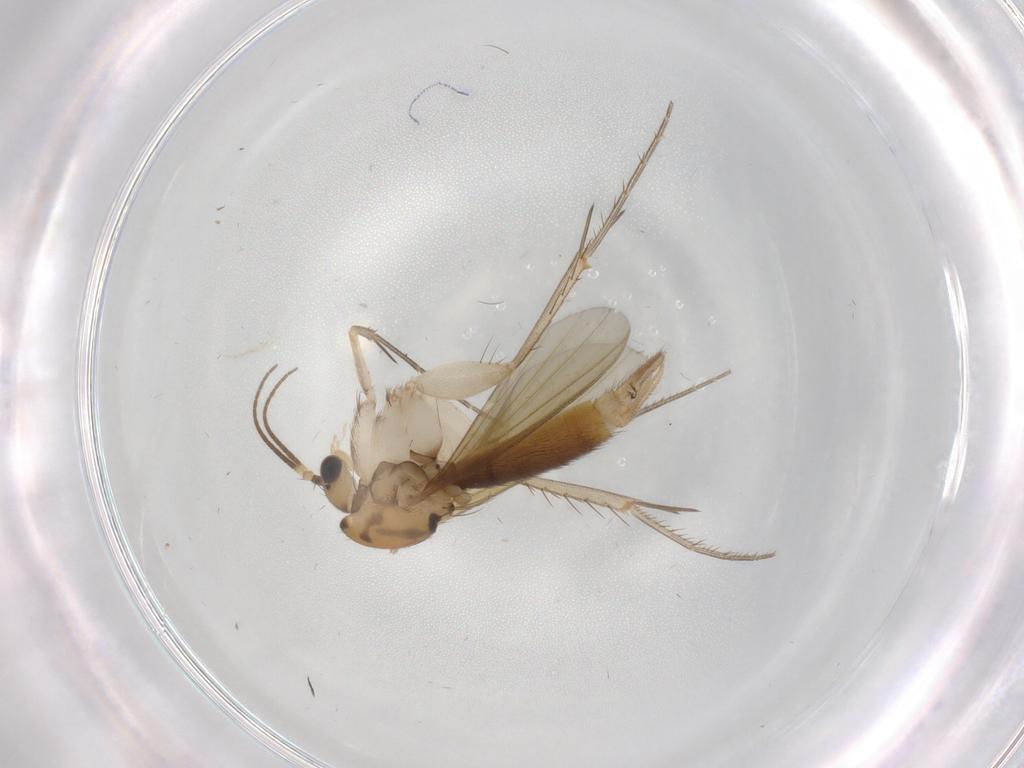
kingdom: Animalia
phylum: Arthropoda
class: Insecta
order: Diptera
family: Mycetophilidae
